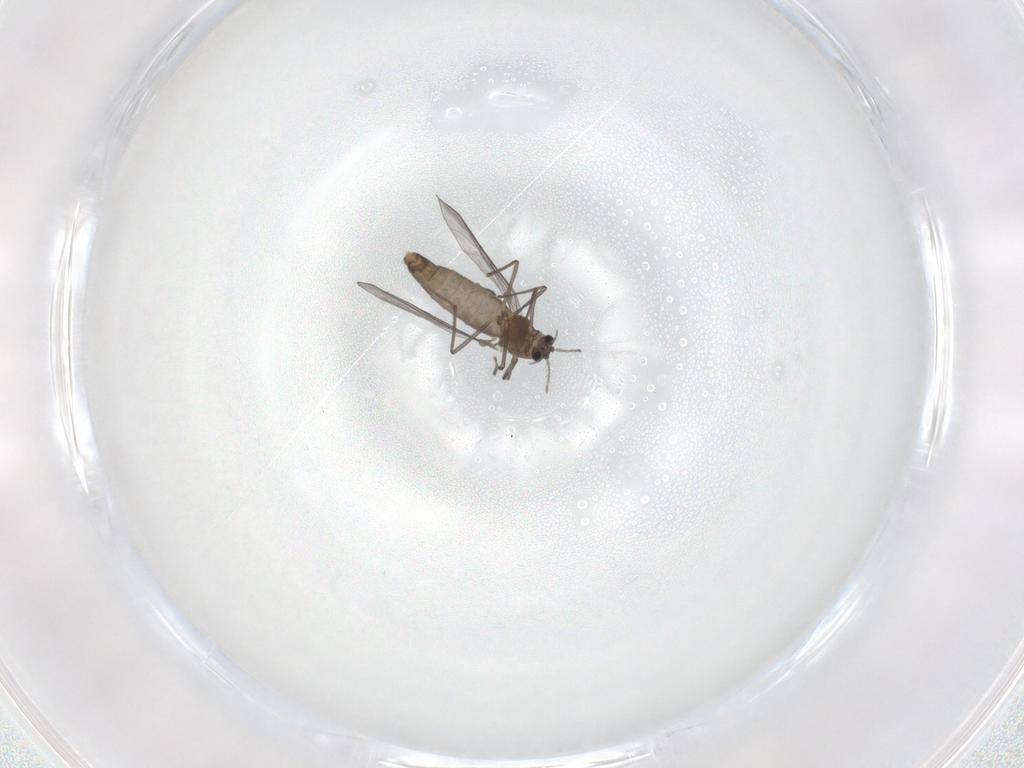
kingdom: Animalia
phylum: Arthropoda
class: Insecta
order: Diptera
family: Chironomidae
